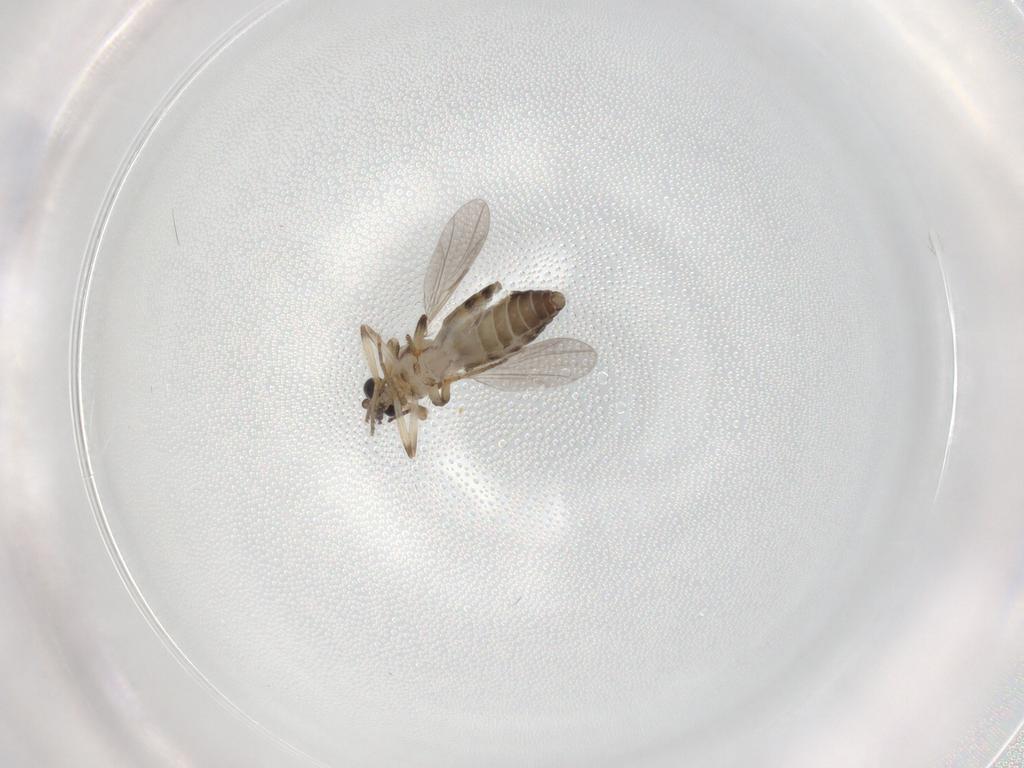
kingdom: Animalia
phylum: Arthropoda
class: Insecta
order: Diptera
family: Ceratopogonidae
